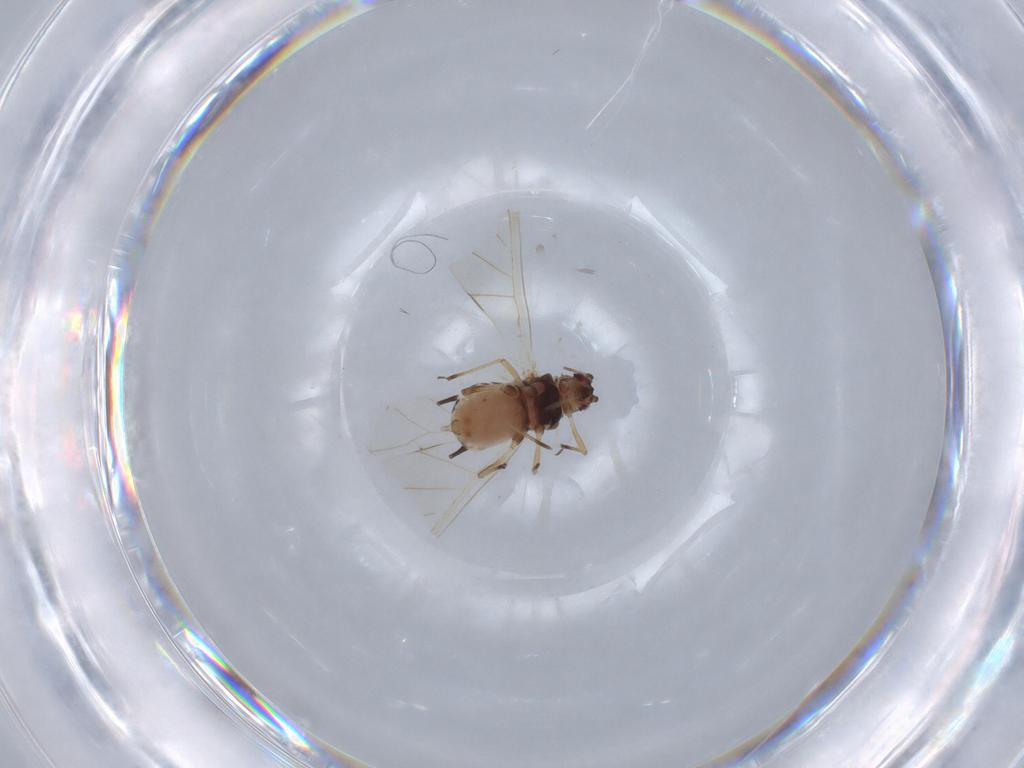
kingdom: Animalia
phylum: Arthropoda
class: Insecta
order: Hemiptera
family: Aphididae
